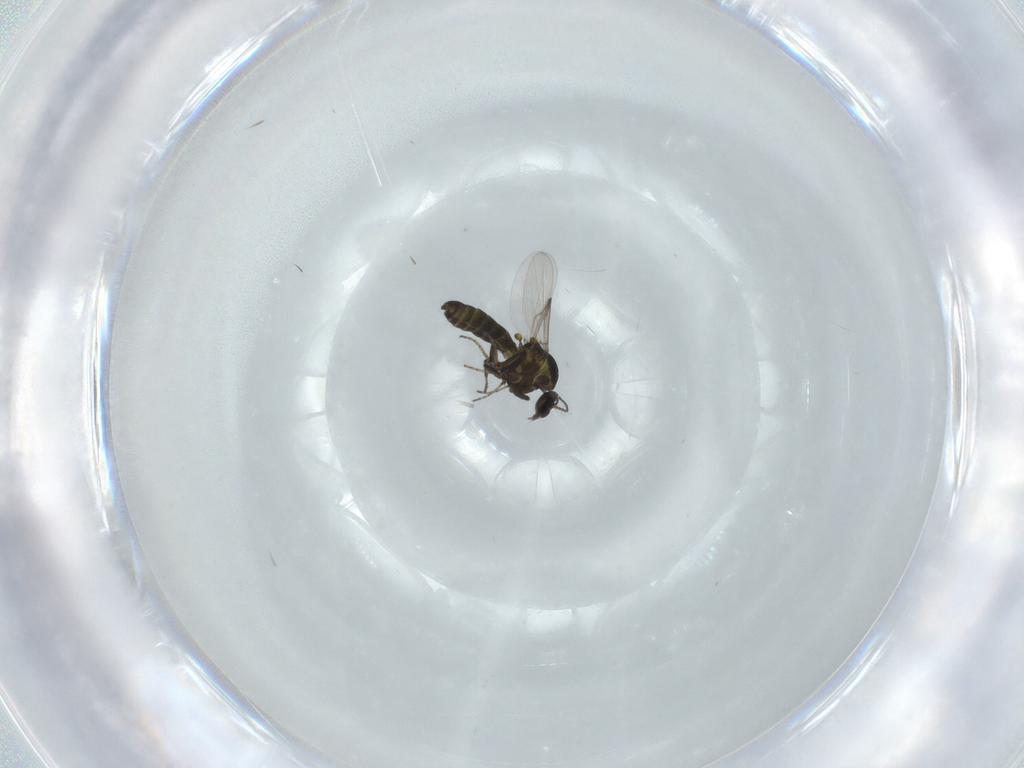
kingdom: Animalia
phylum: Arthropoda
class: Insecta
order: Diptera
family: Ceratopogonidae
